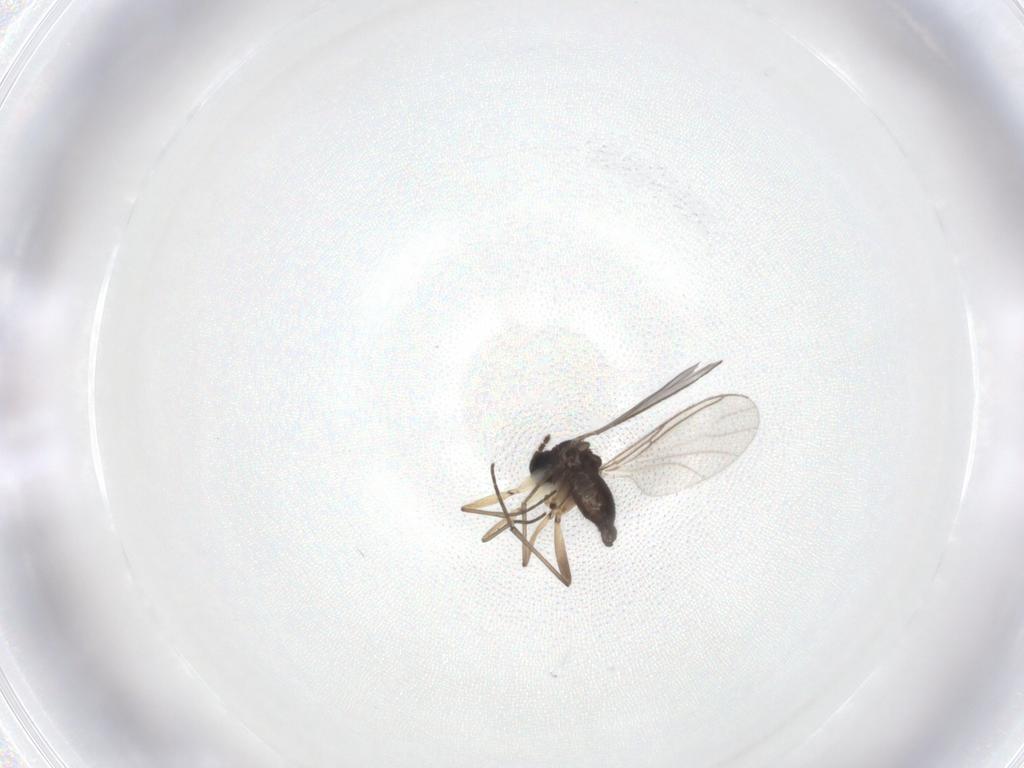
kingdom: Animalia
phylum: Arthropoda
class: Insecta
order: Diptera
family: Sciaridae
